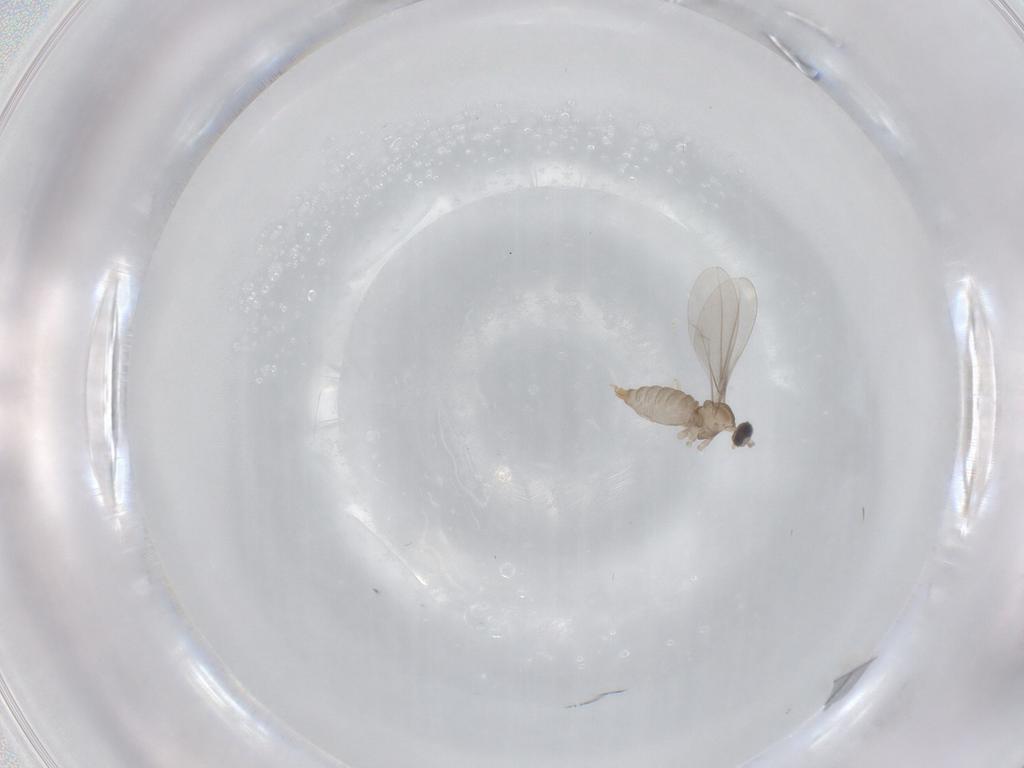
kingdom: Animalia
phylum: Arthropoda
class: Insecta
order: Diptera
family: Cecidomyiidae
